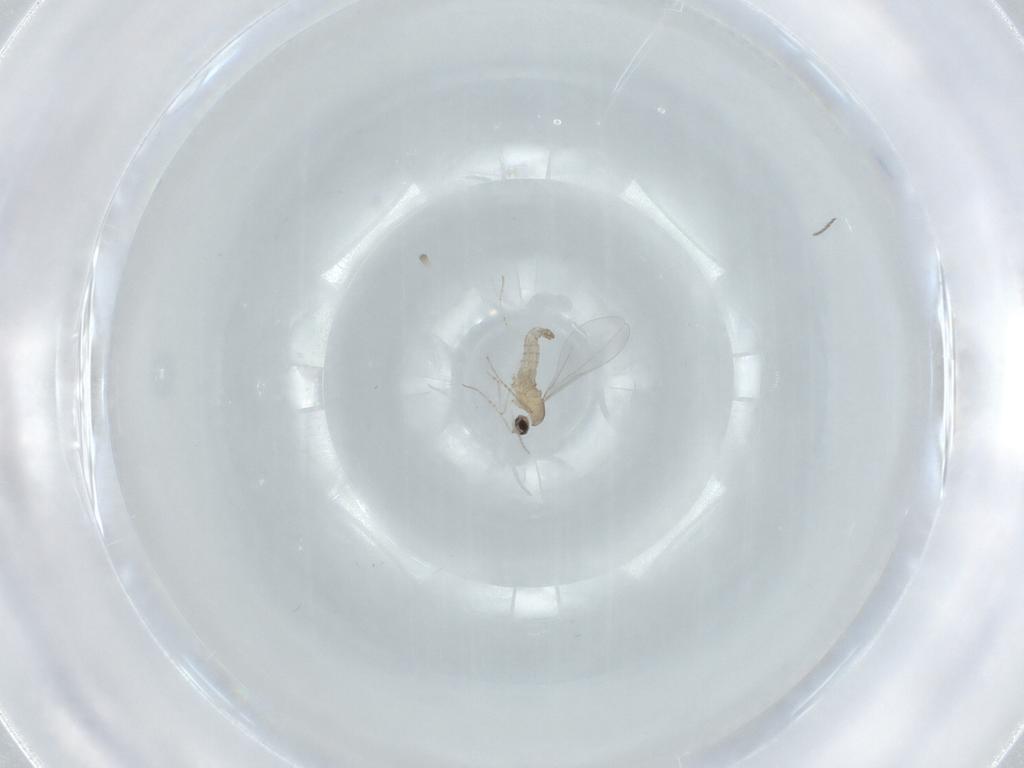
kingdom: Animalia
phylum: Arthropoda
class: Insecta
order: Diptera
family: Cecidomyiidae
